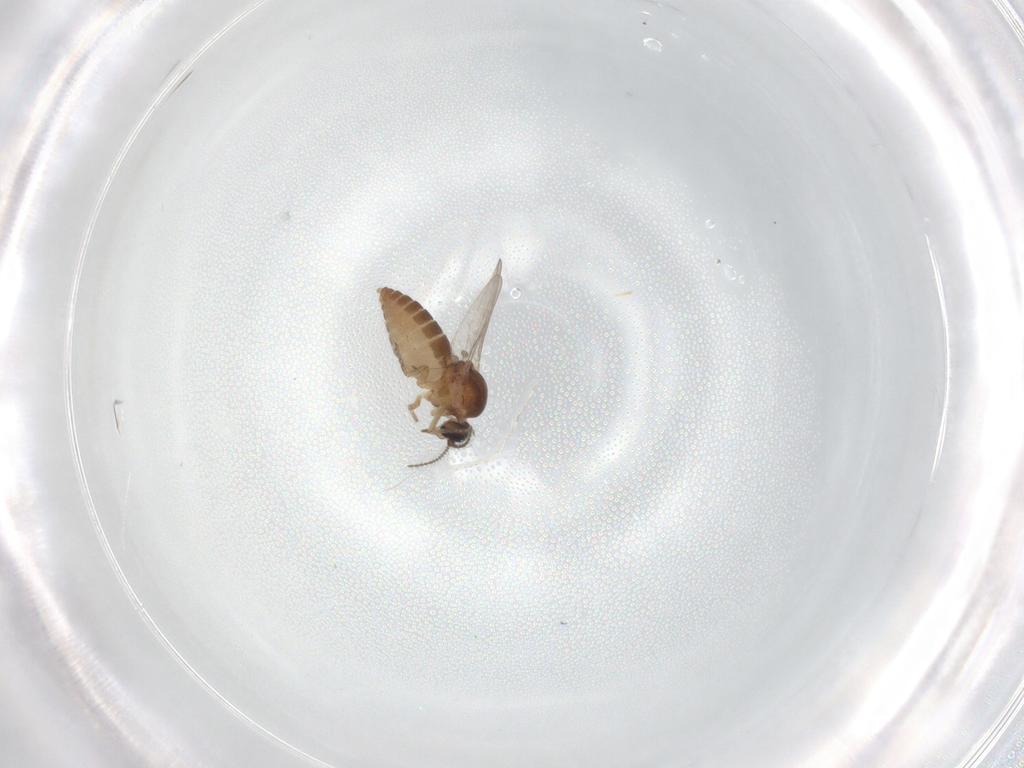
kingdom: Animalia
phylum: Arthropoda
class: Insecta
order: Diptera
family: Ceratopogonidae
